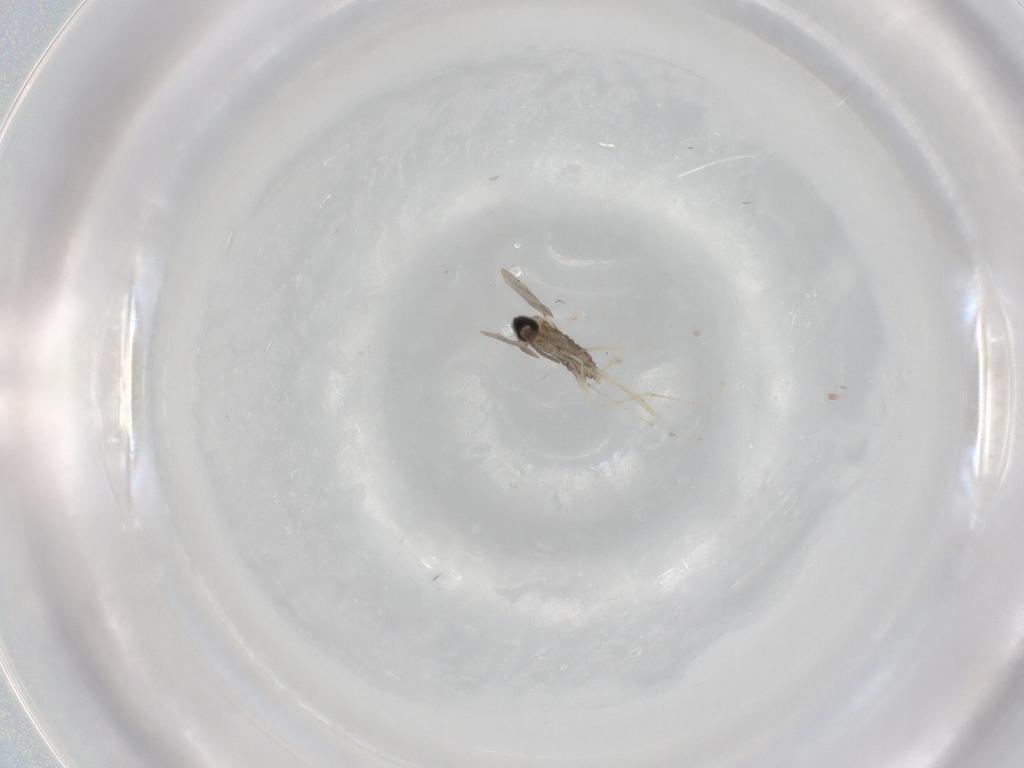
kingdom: Animalia
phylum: Arthropoda
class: Insecta
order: Diptera
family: Cecidomyiidae
